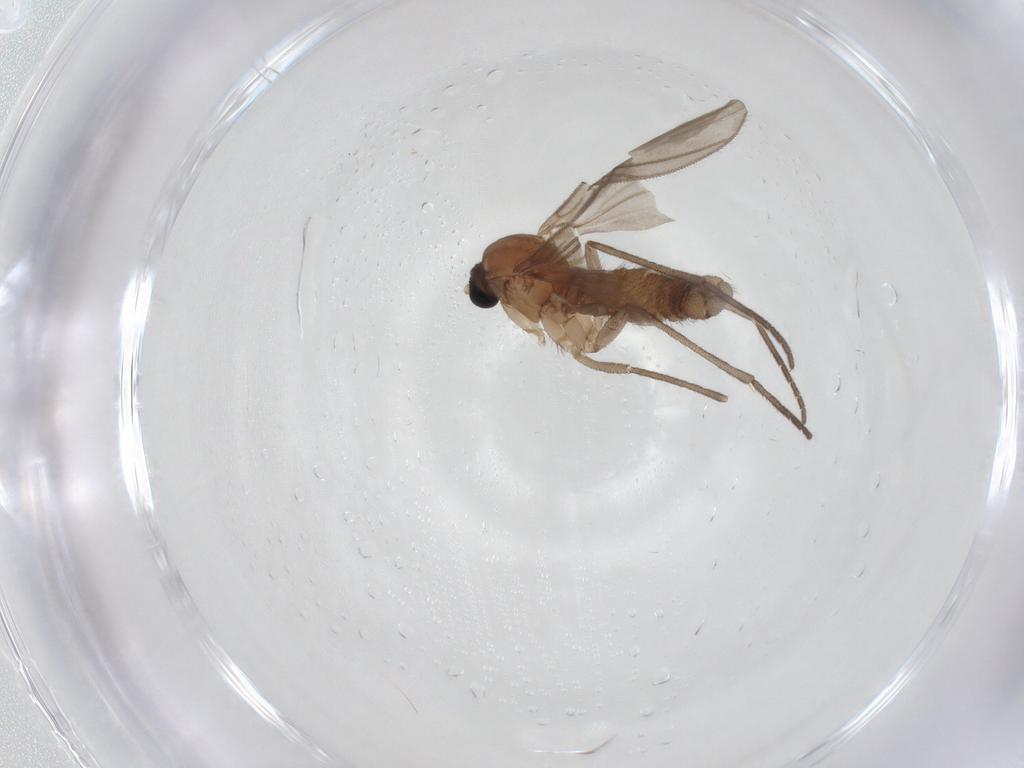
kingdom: Animalia
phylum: Arthropoda
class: Insecta
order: Diptera
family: Sciaridae
